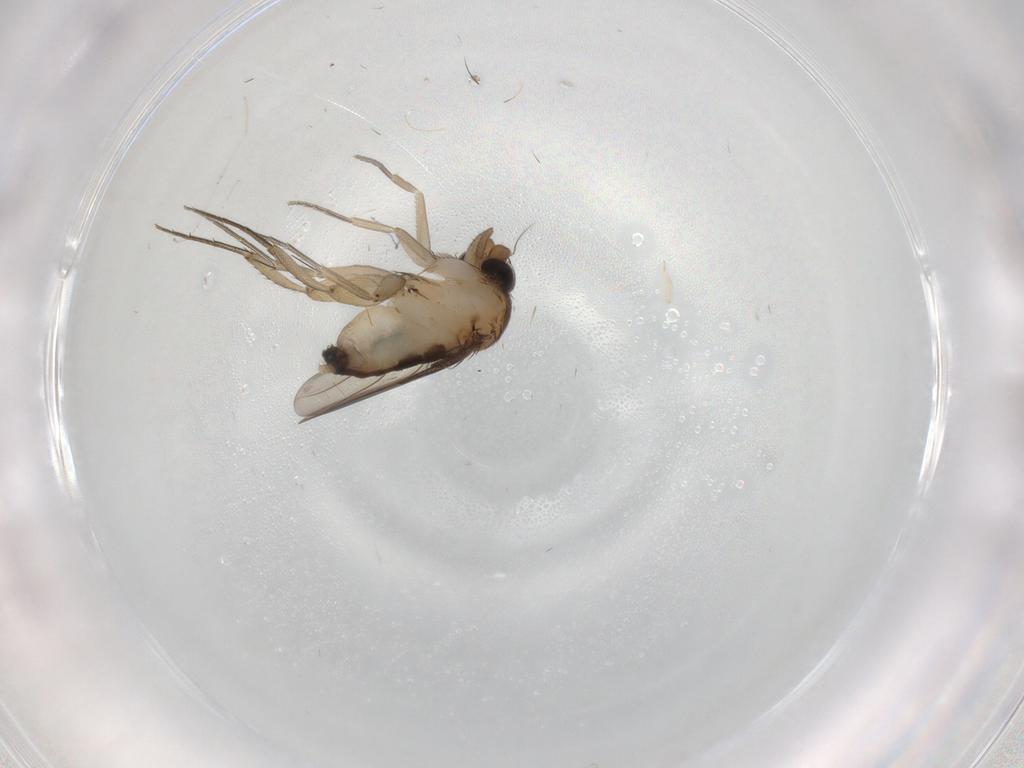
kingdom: Animalia
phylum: Arthropoda
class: Insecta
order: Diptera
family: Phoridae
